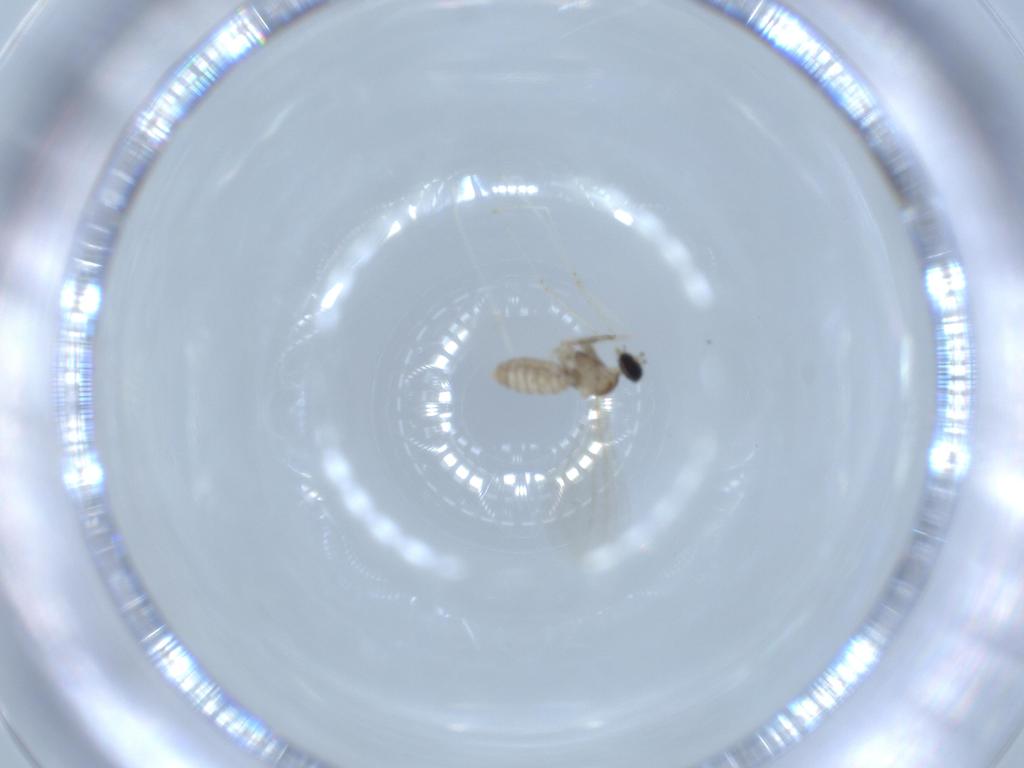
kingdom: Animalia
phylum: Arthropoda
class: Insecta
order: Diptera
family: Cecidomyiidae
